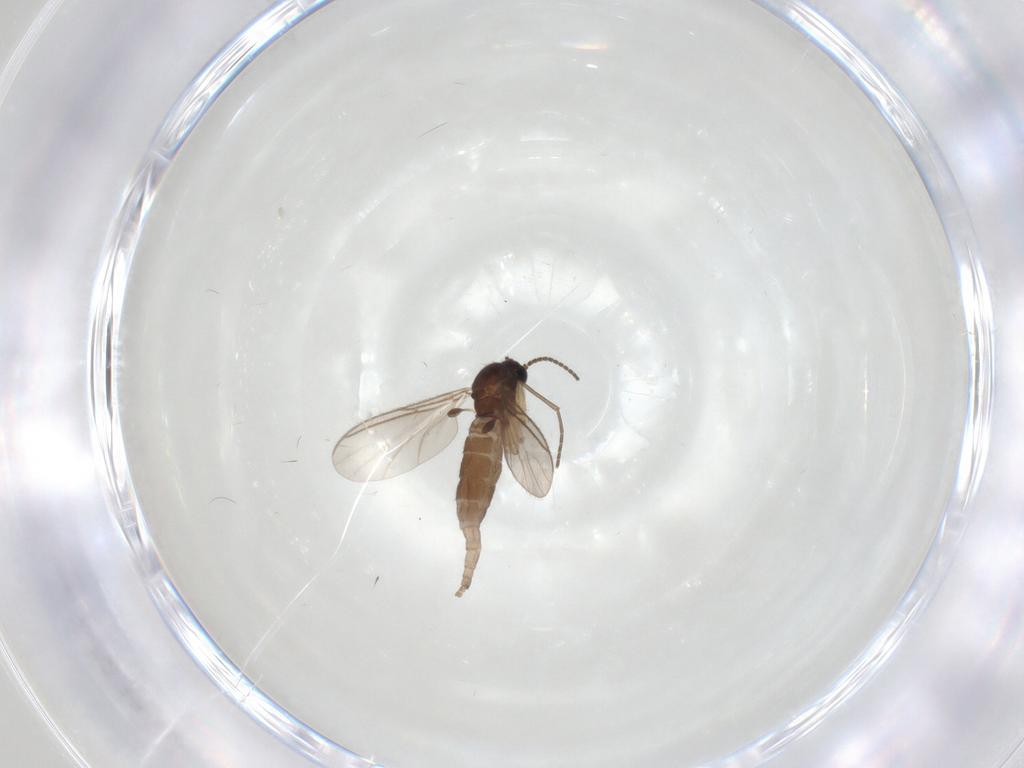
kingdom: Animalia
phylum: Arthropoda
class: Insecta
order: Diptera
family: Sciaridae
